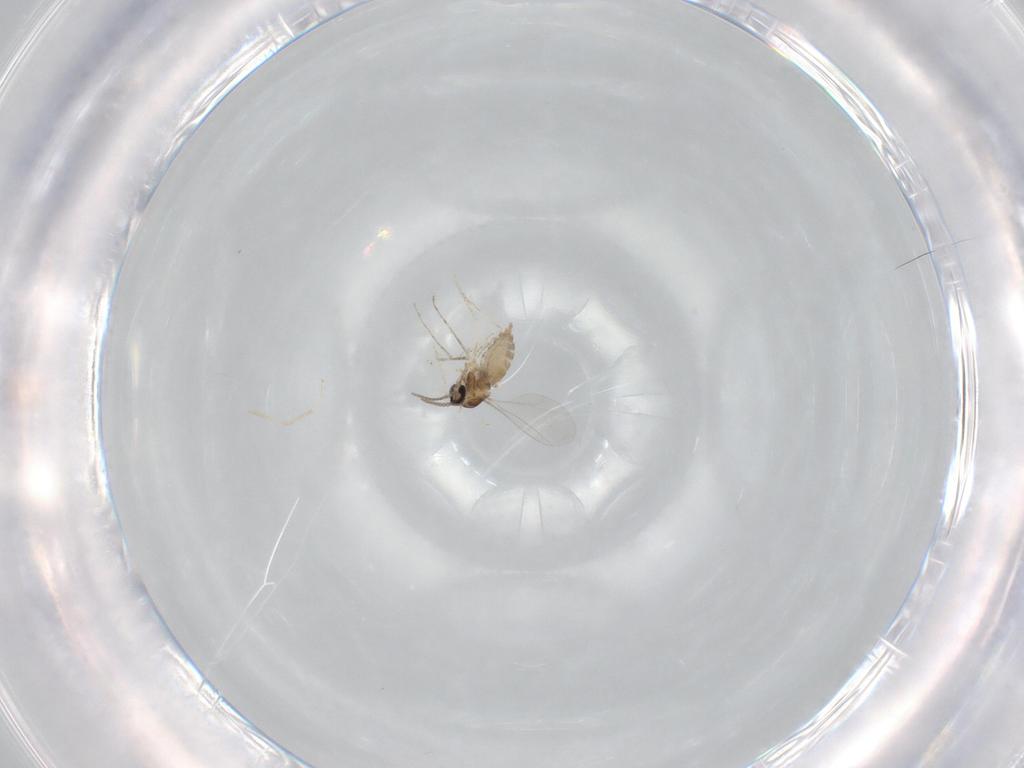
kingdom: Animalia
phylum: Arthropoda
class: Insecta
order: Diptera
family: Cecidomyiidae
